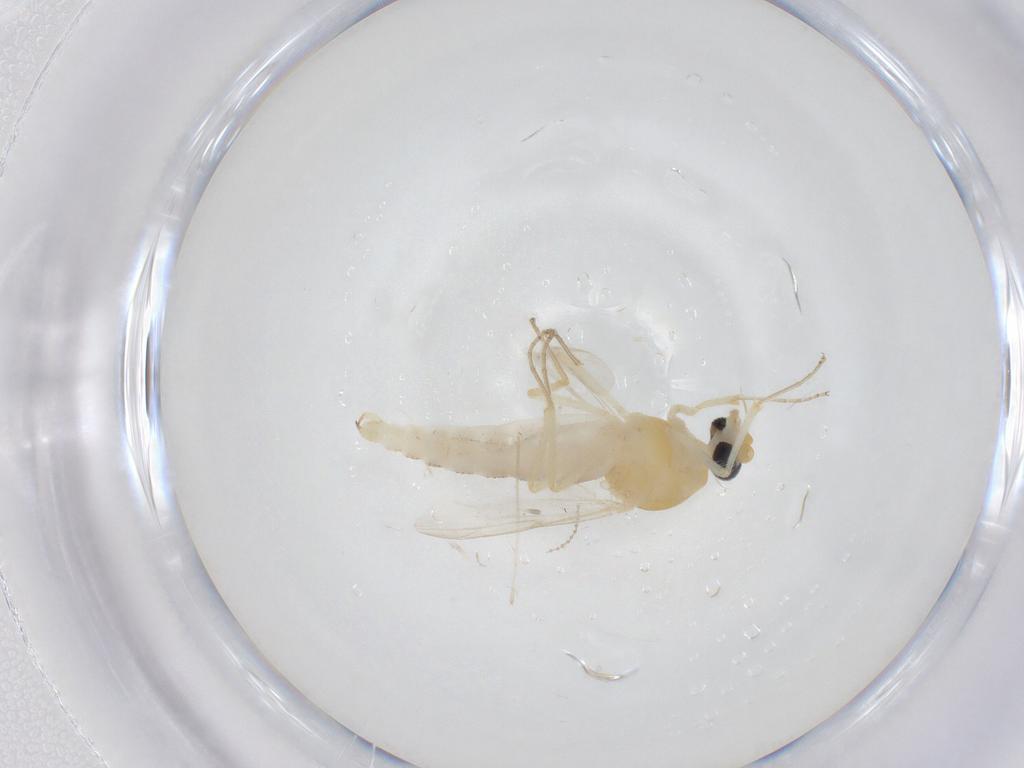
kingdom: Animalia
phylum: Arthropoda
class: Insecta
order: Diptera
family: Ceratopogonidae
